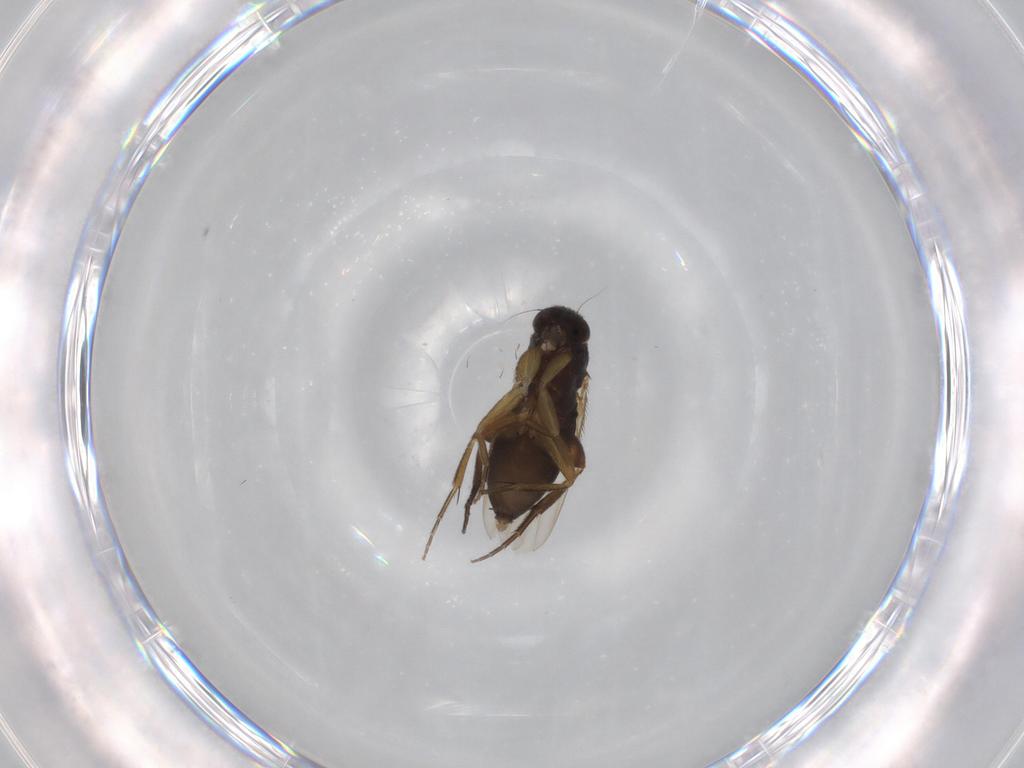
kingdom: Animalia
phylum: Arthropoda
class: Insecta
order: Diptera
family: Phoridae
